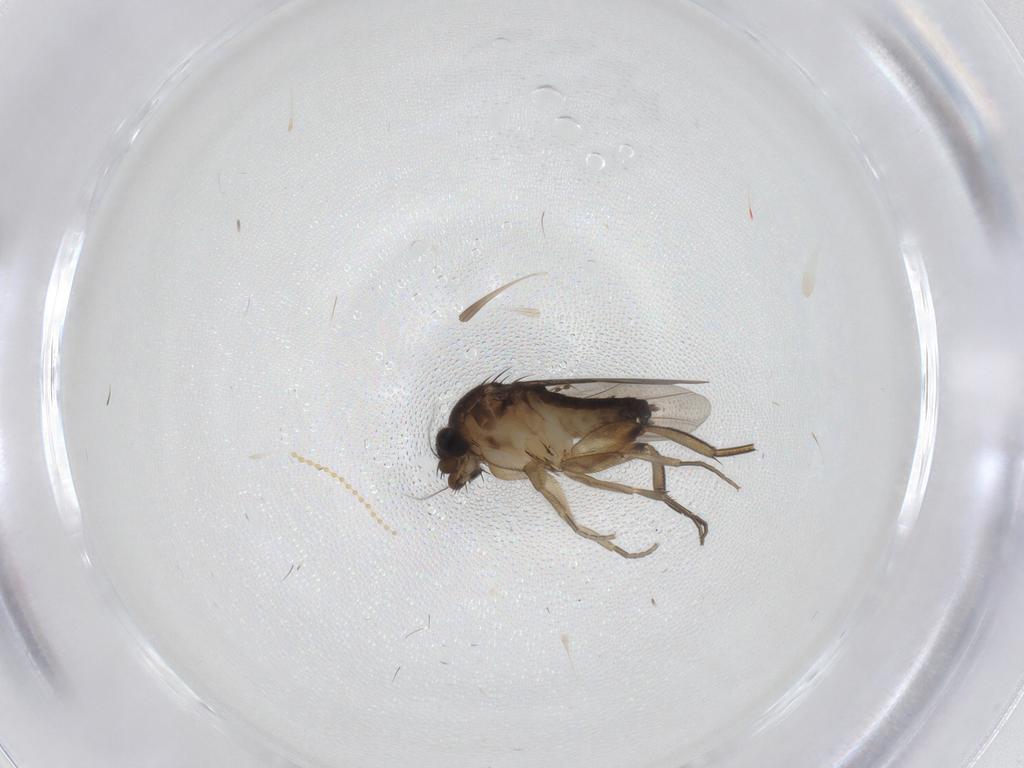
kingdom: Animalia
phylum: Arthropoda
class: Insecta
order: Diptera
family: Phoridae
